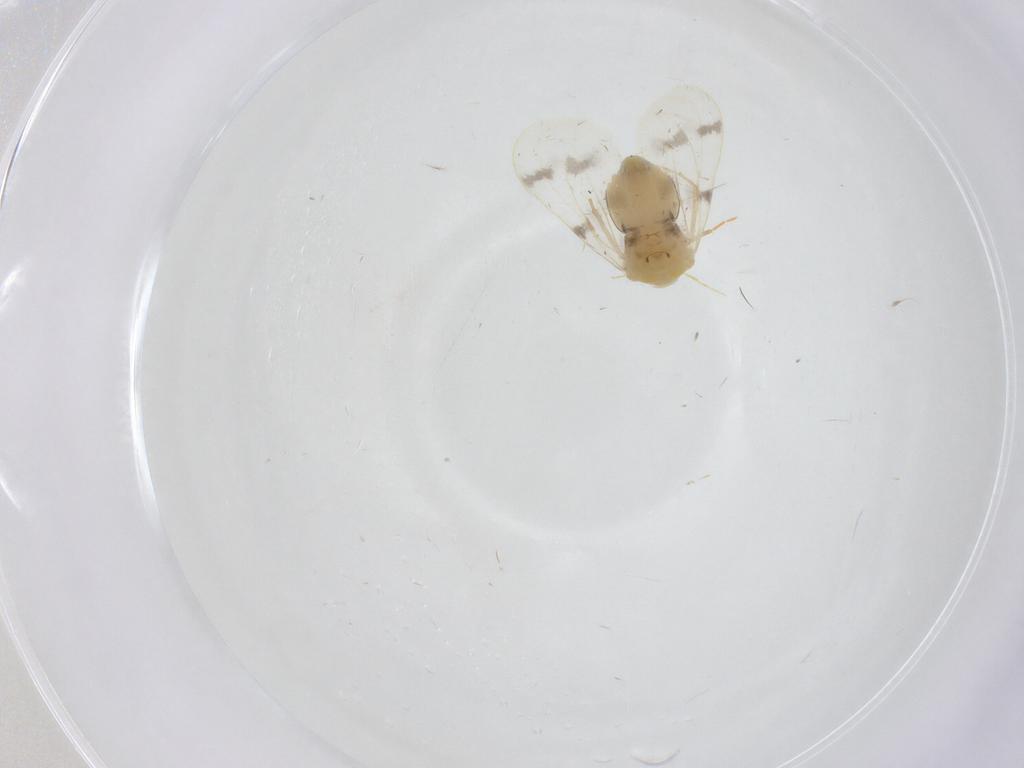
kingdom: Animalia
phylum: Arthropoda
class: Insecta
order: Hemiptera
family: Aleyrodidae
